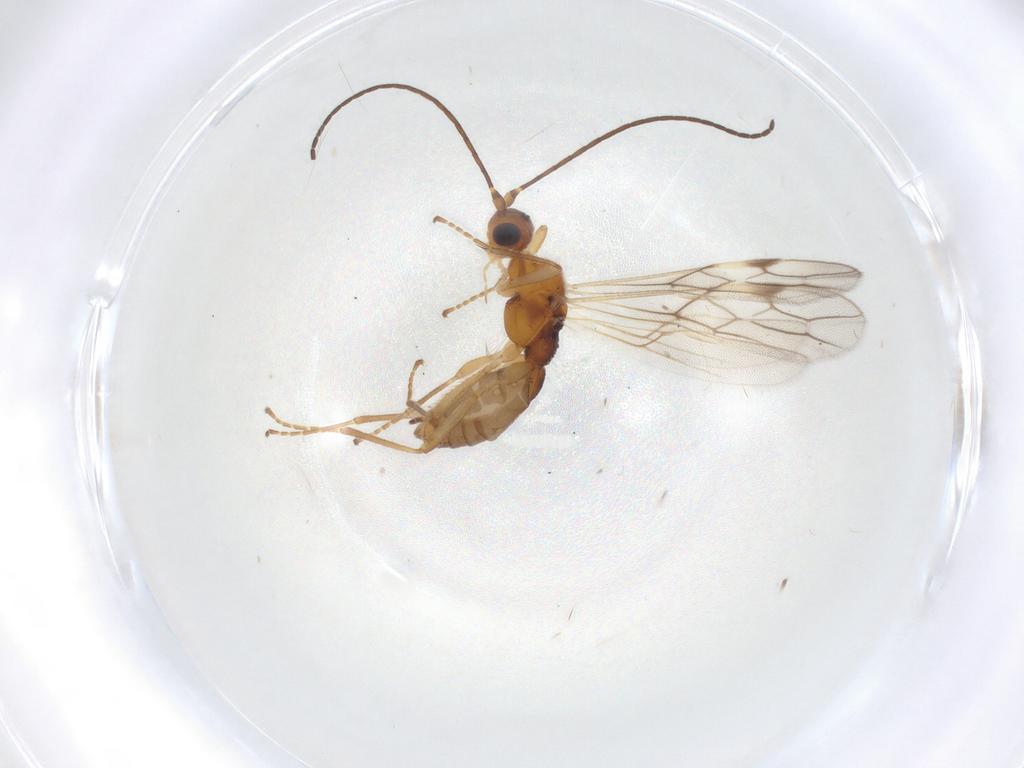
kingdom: Animalia
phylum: Arthropoda
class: Insecta
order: Hymenoptera
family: Braconidae
